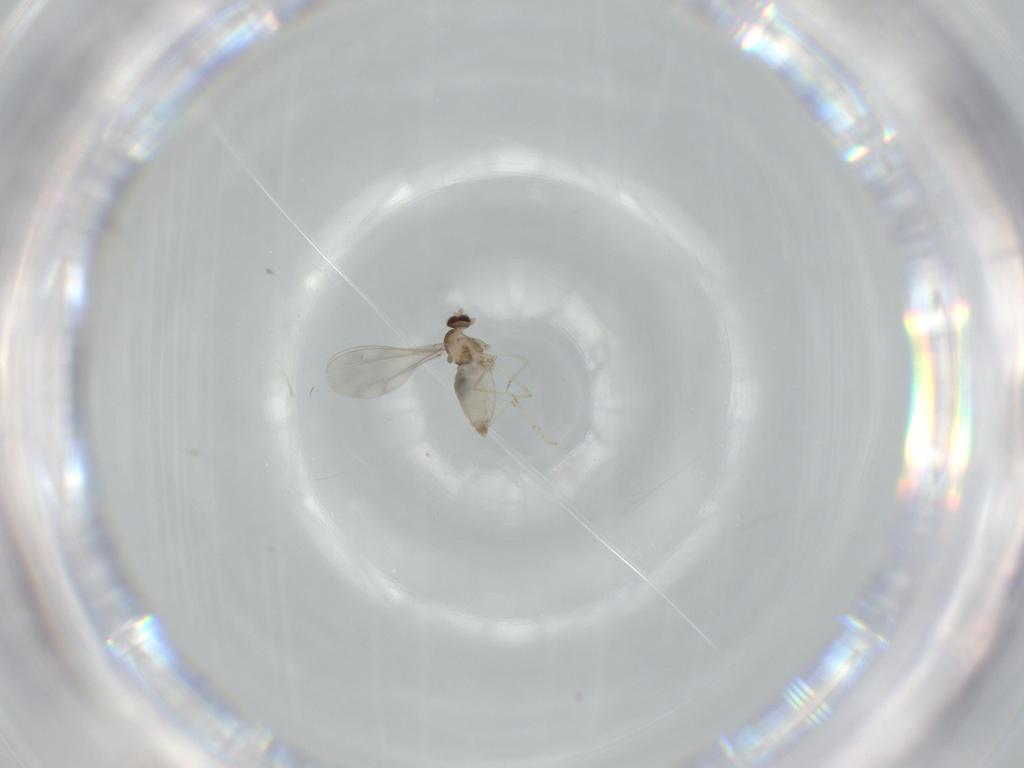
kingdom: Animalia
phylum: Arthropoda
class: Insecta
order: Diptera
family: Cecidomyiidae
